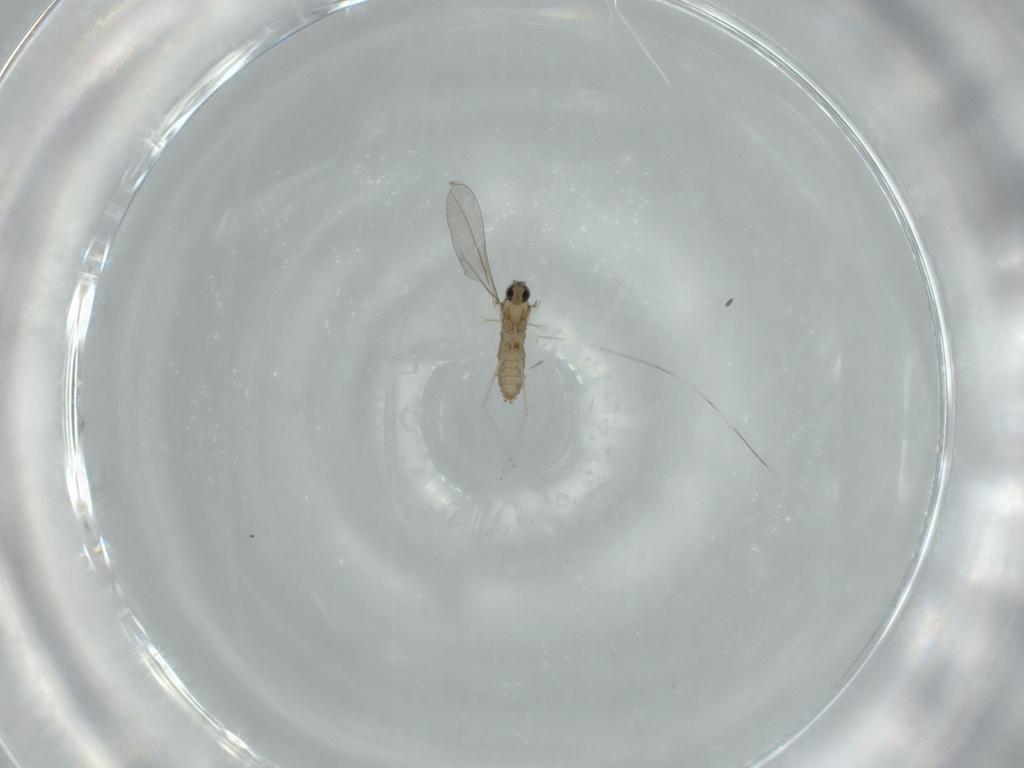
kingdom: Animalia
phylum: Arthropoda
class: Insecta
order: Diptera
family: Cecidomyiidae
